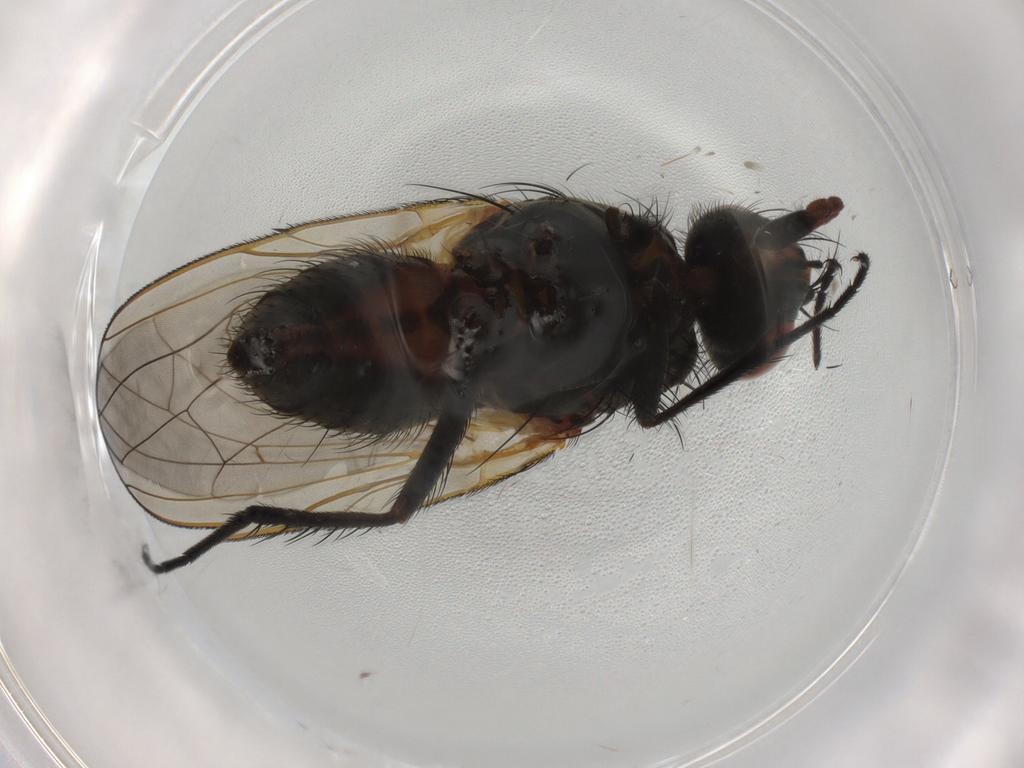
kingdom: Animalia
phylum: Arthropoda
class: Insecta
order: Diptera
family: Anthomyiidae
